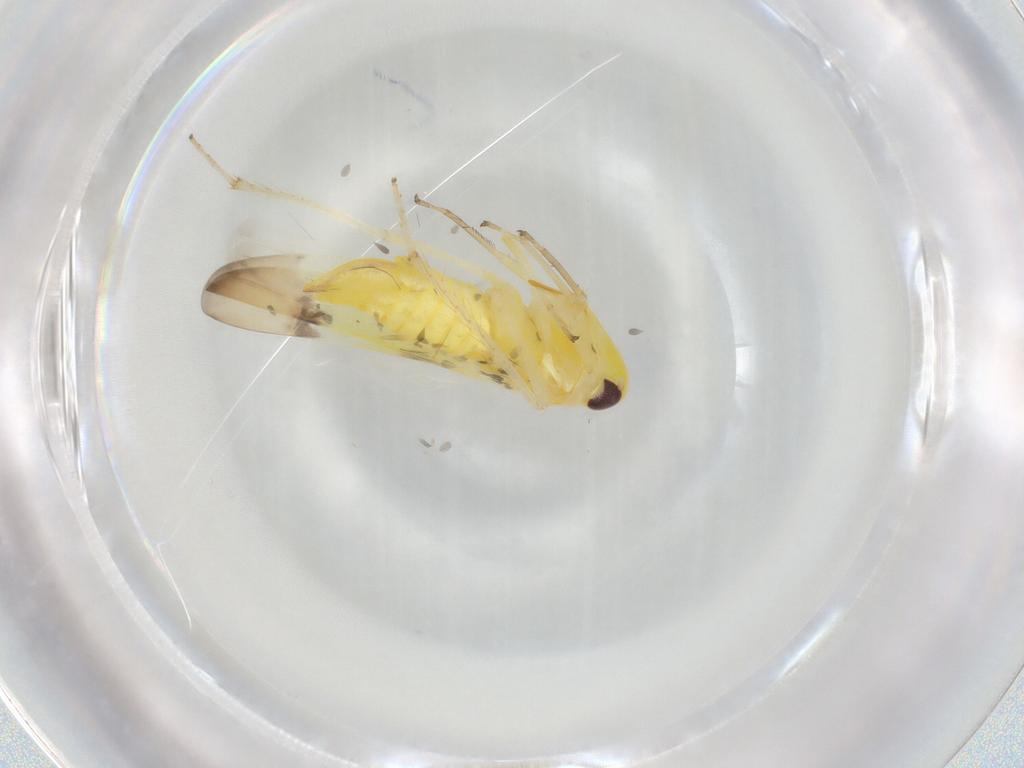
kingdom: Animalia
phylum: Arthropoda
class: Insecta
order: Hemiptera
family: Cicadellidae
